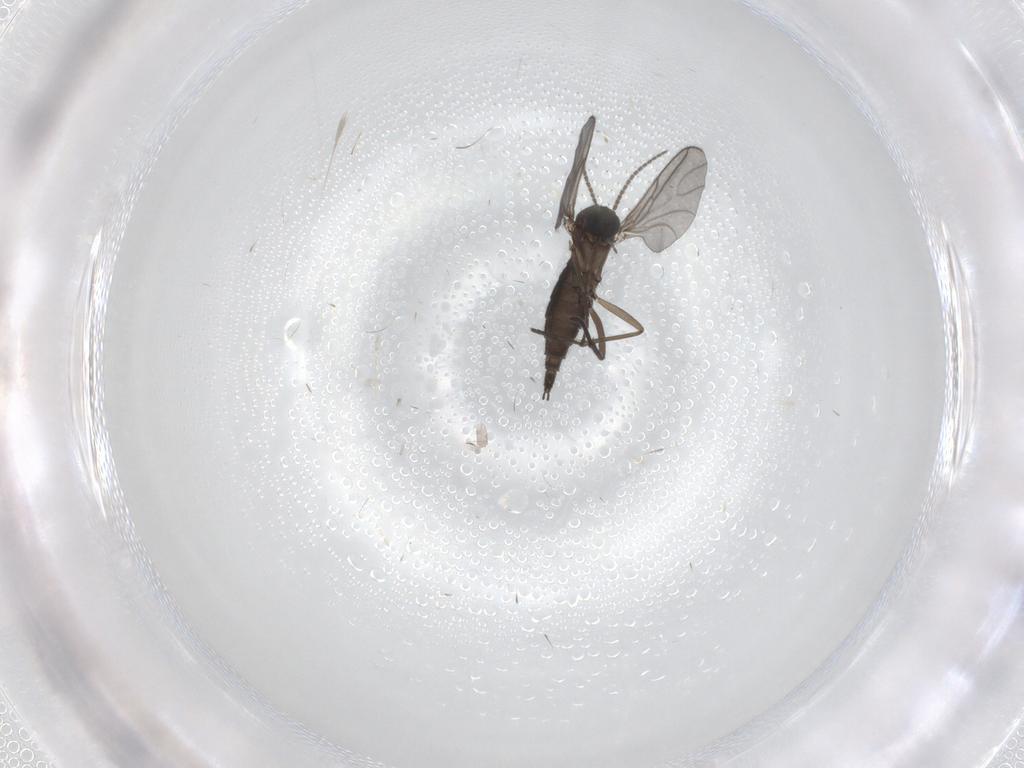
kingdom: Animalia
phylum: Arthropoda
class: Insecta
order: Diptera
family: Sciaridae
